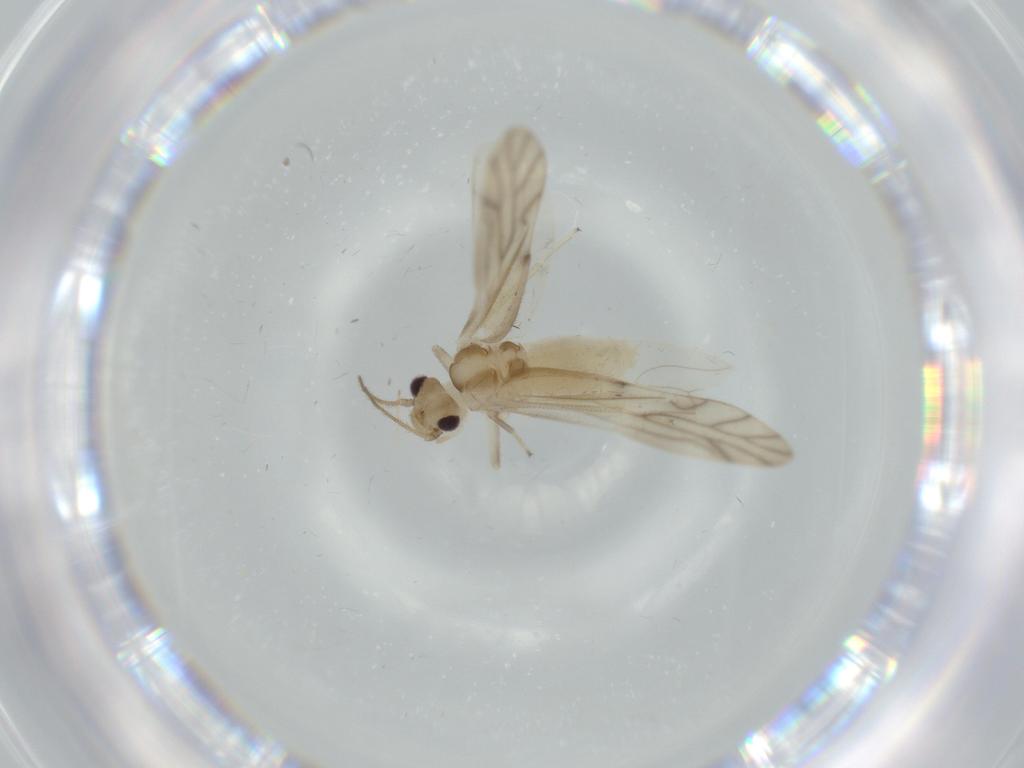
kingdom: Animalia
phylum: Arthropoda
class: Insecta
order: Psocodea
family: Caeciliusidae
